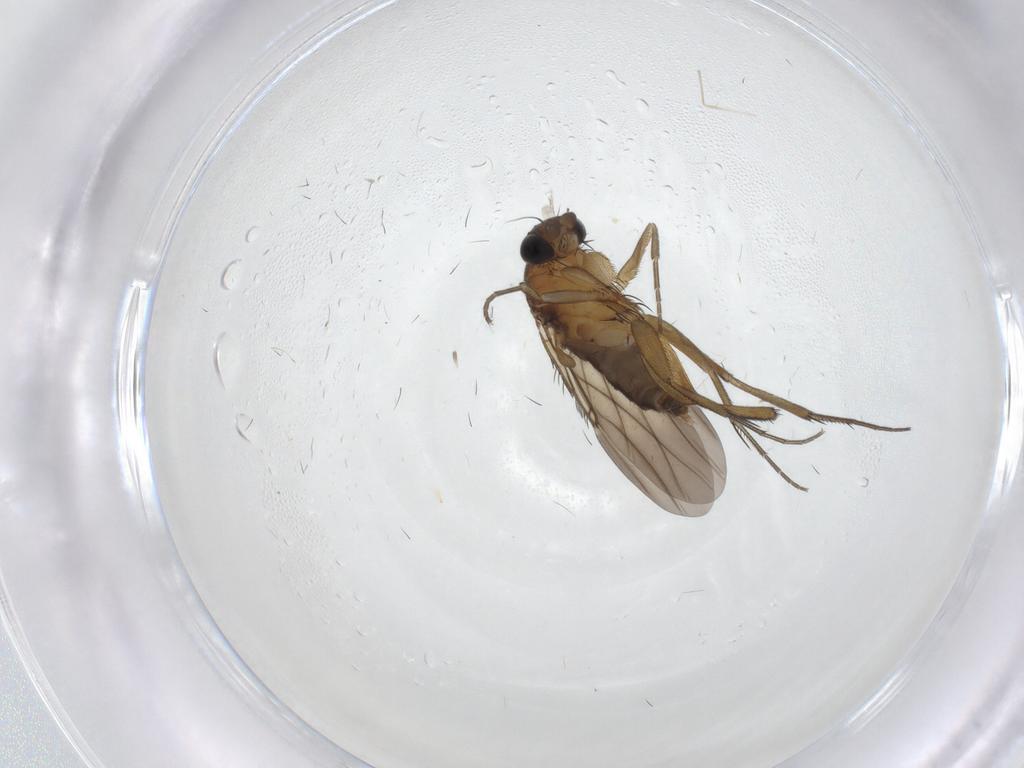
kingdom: Animalia
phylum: Arthropoda
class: Insecta
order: Diptera
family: Phoridae
